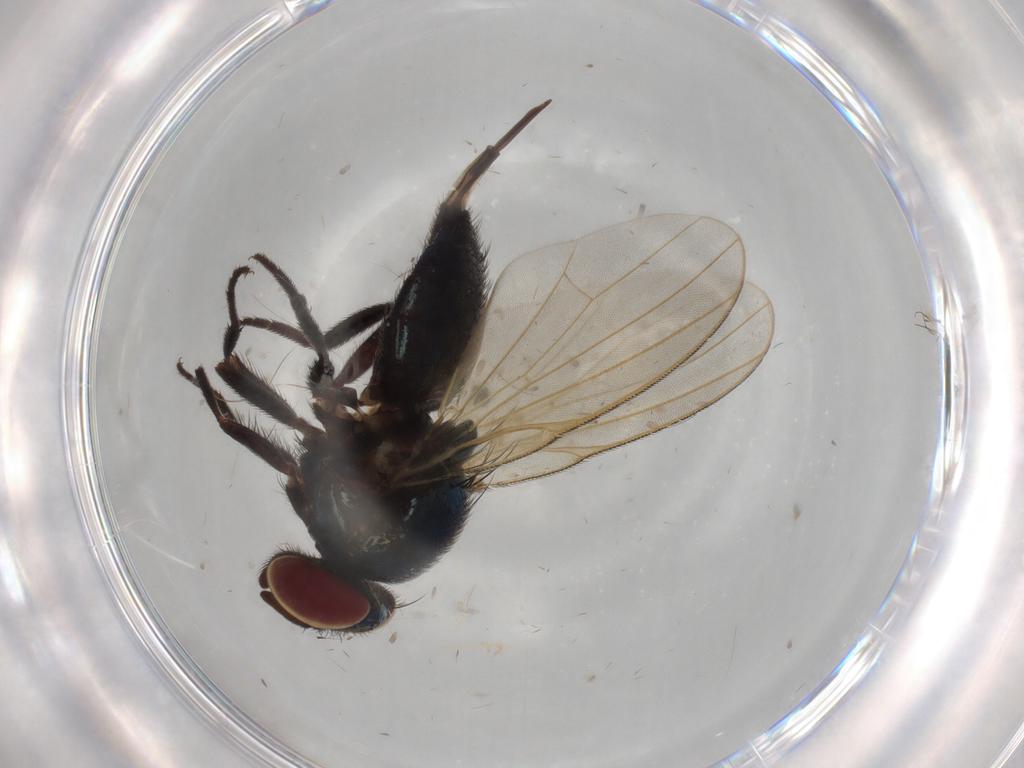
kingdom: Animalia
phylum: Arthropoda
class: Insecta
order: Diptera
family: Lonchaeidae
